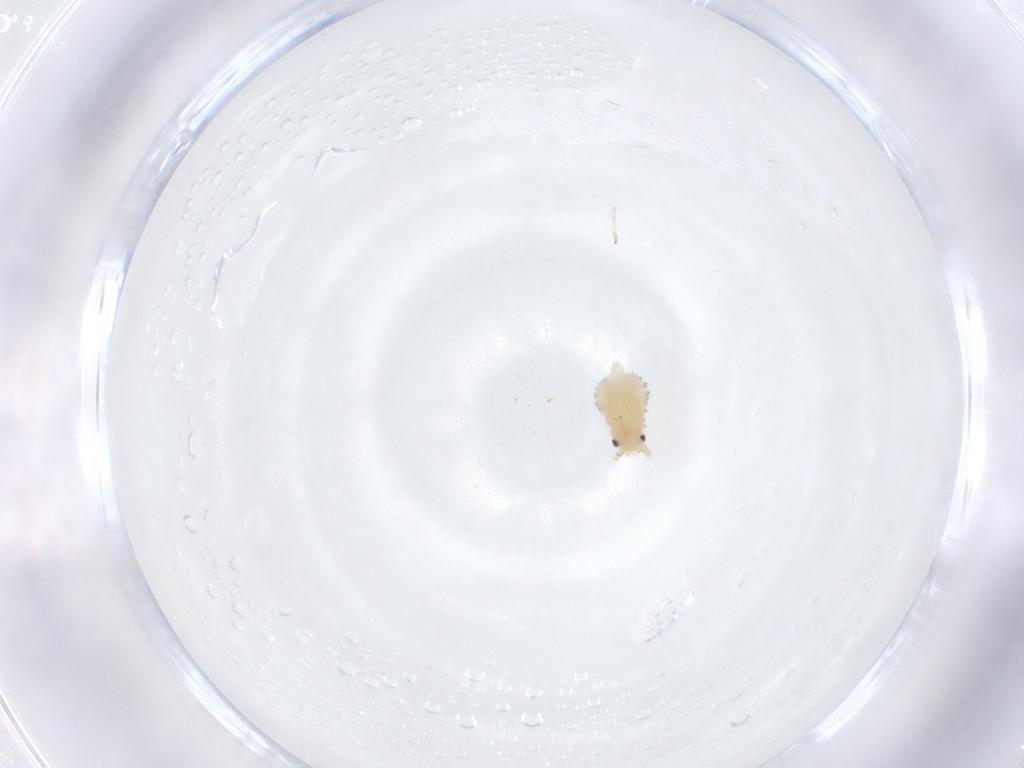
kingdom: Animalia
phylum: Arthropoda
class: Insecta
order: Hemiptera
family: Aphididae
